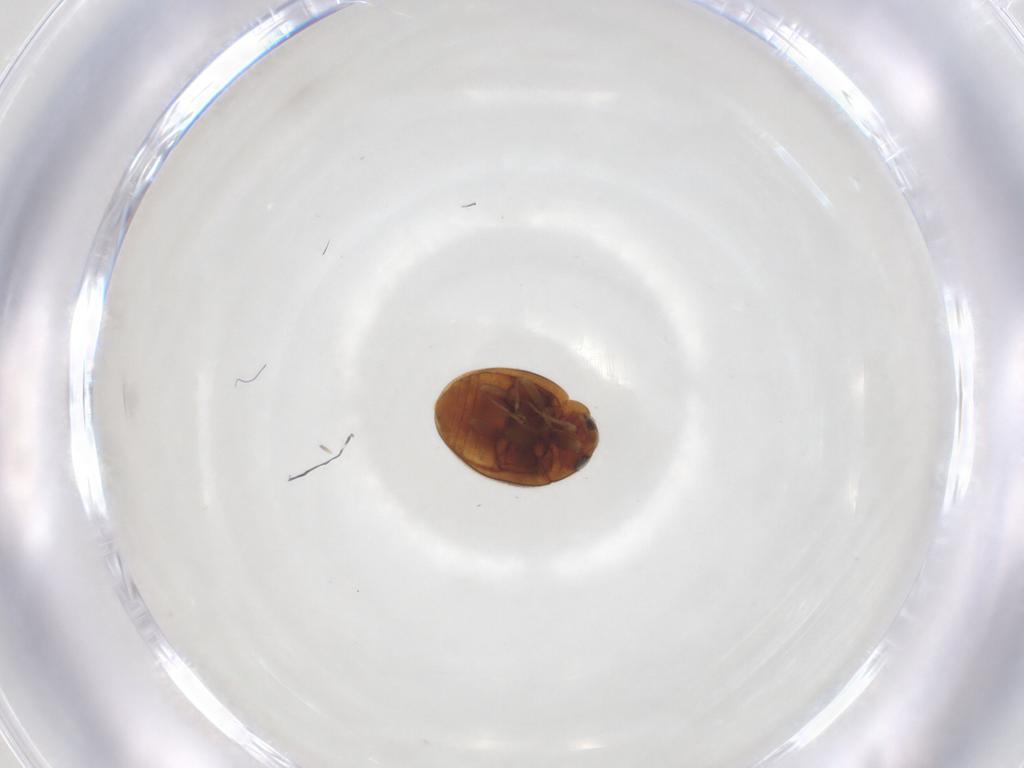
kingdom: Animalia
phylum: Arthropoda
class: Insecta
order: Coleoptera
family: Coccinellidae
